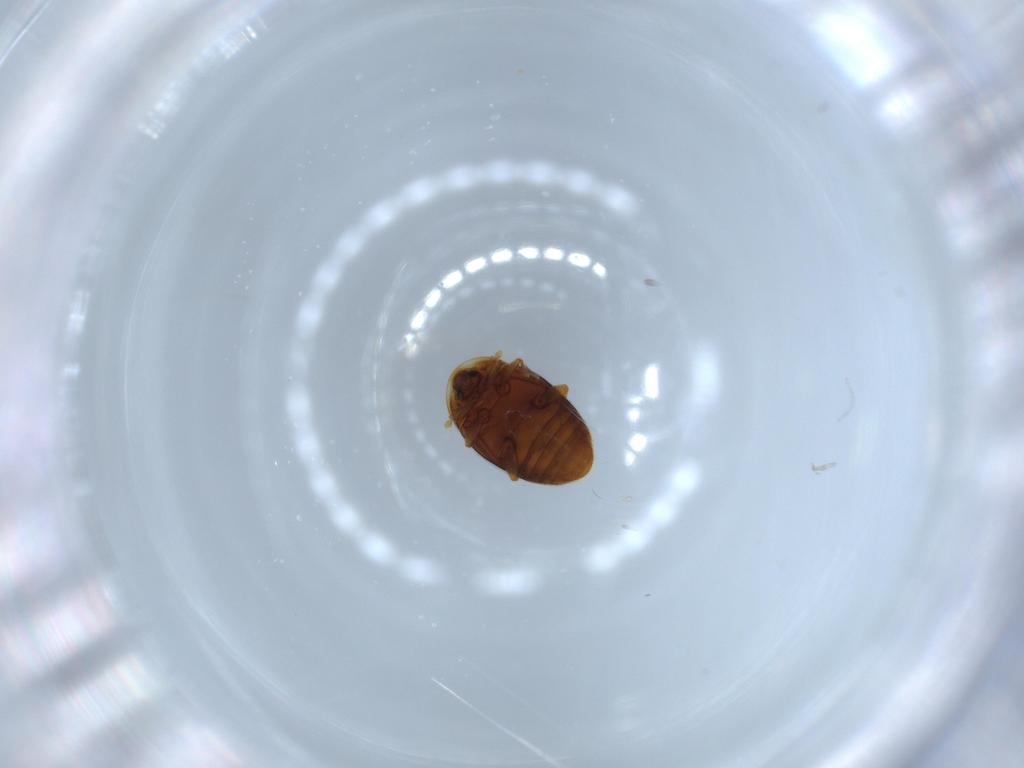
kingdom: Animalia
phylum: Arthropoda
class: Insecta
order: Coleoptera
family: Corylophidae
